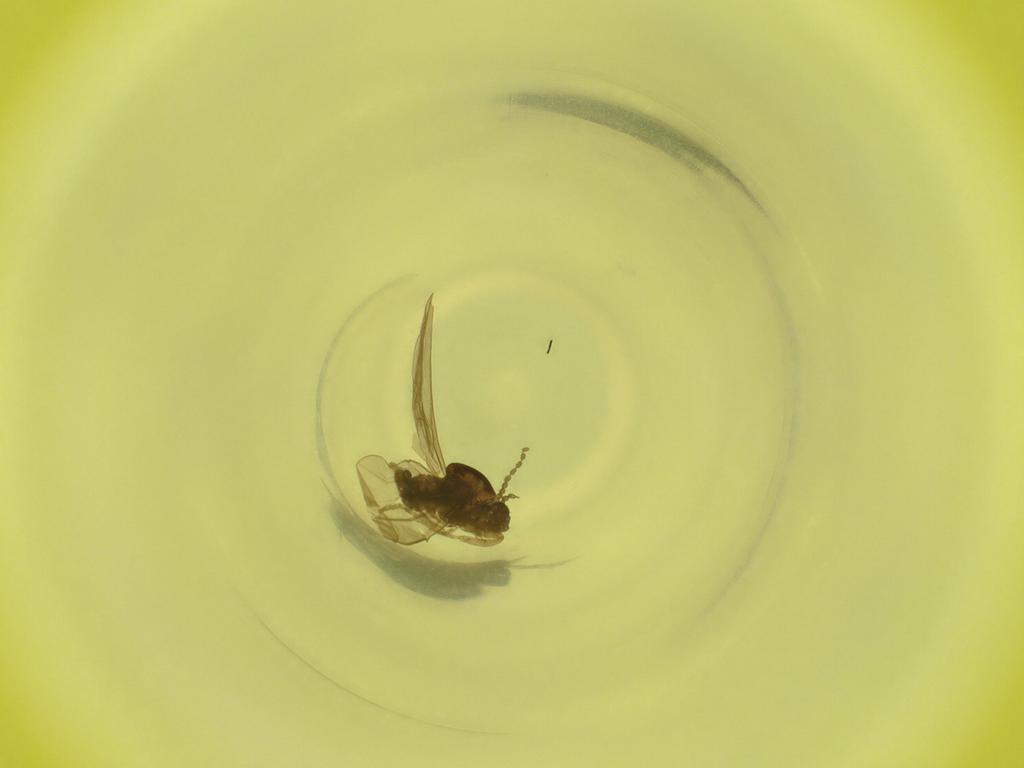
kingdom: Animalia
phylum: Arthropoda
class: Insecta
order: Diptera
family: Cecidomyiidae
